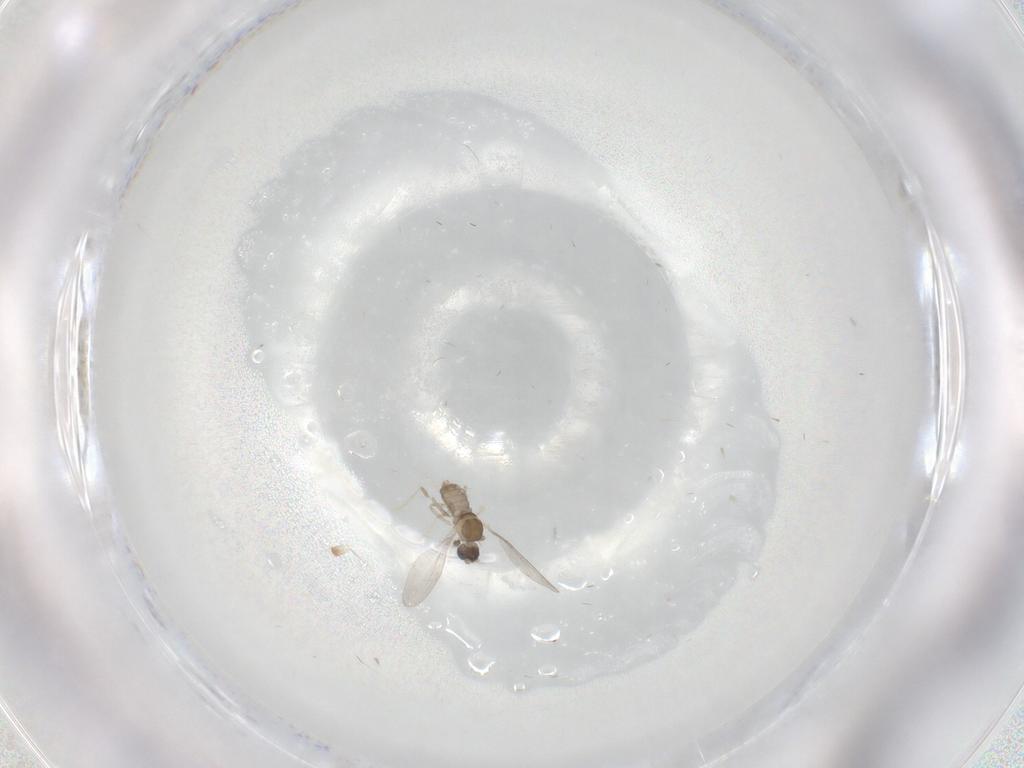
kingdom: Animalia
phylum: Arthropoda
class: Insecta
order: Diptera
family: Cecidomyiidae
